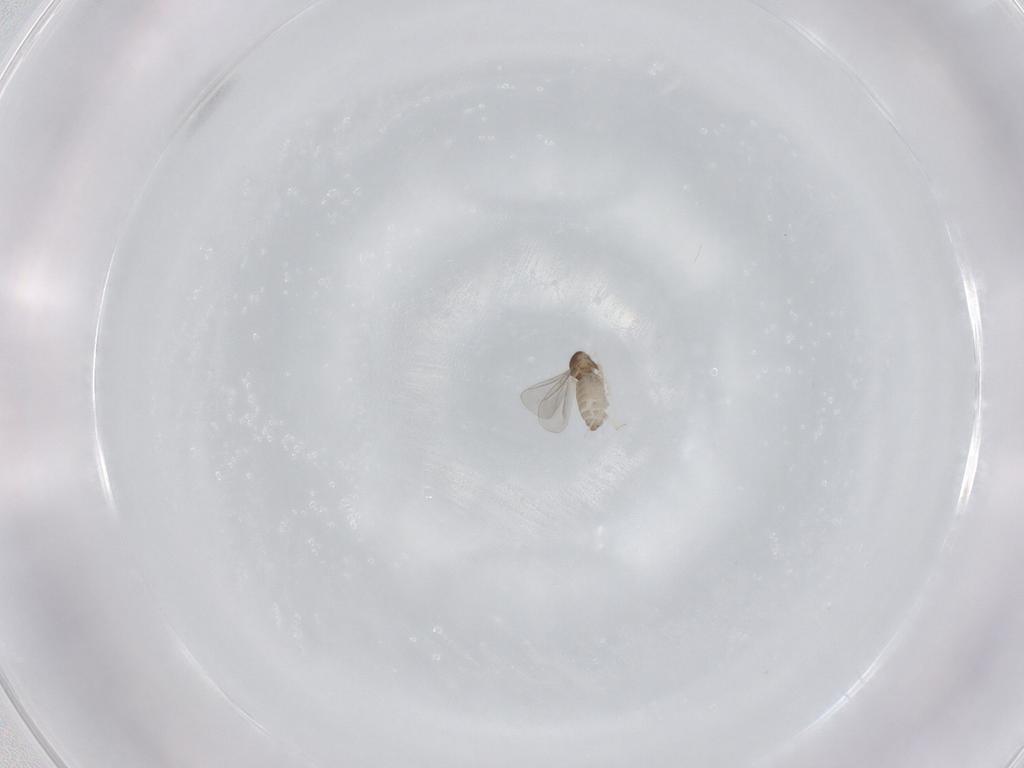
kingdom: Animalia
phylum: Arthropoda
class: Insecta
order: Diptera
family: Cecidomyiidae
